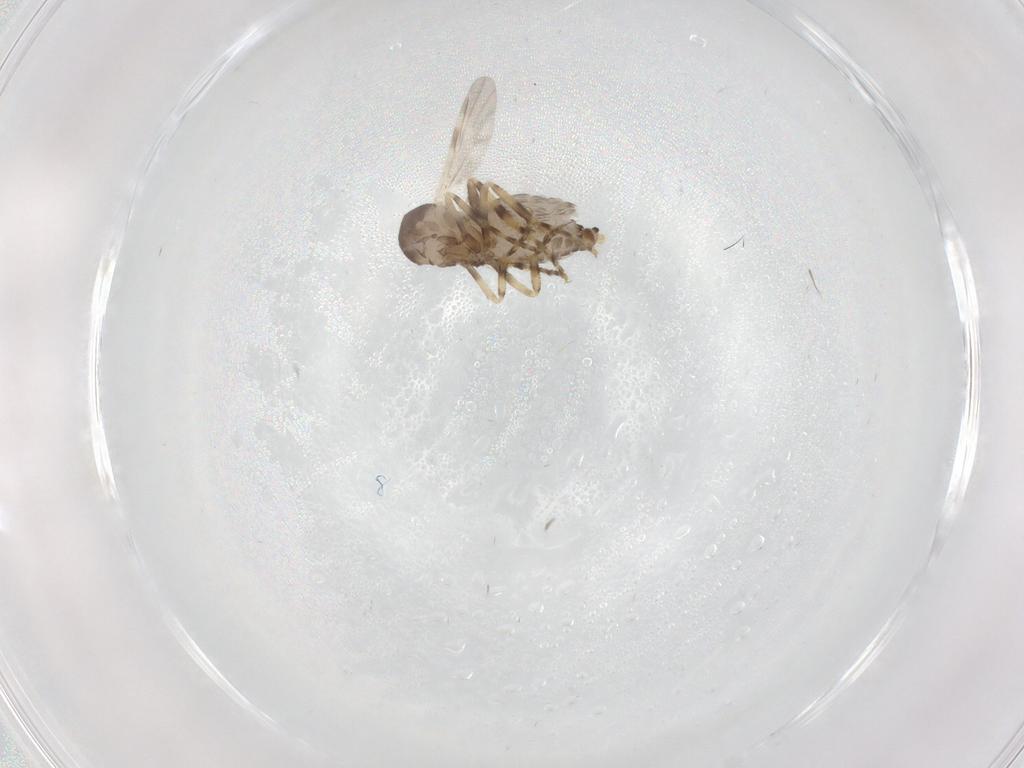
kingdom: Animalia
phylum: Arthropoda
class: Insecta
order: Diptera
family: Ceratopogonidae
